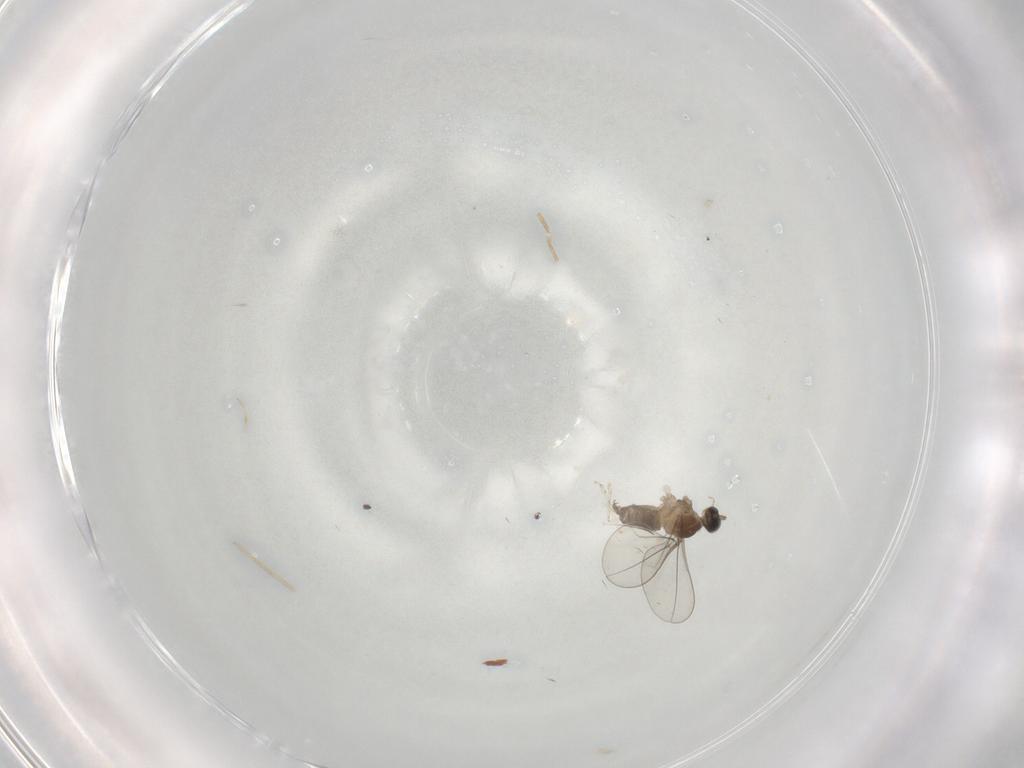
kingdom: Animalia
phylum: Arthropoda
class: Insecta
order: Diptera
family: Cecidomyiidae
